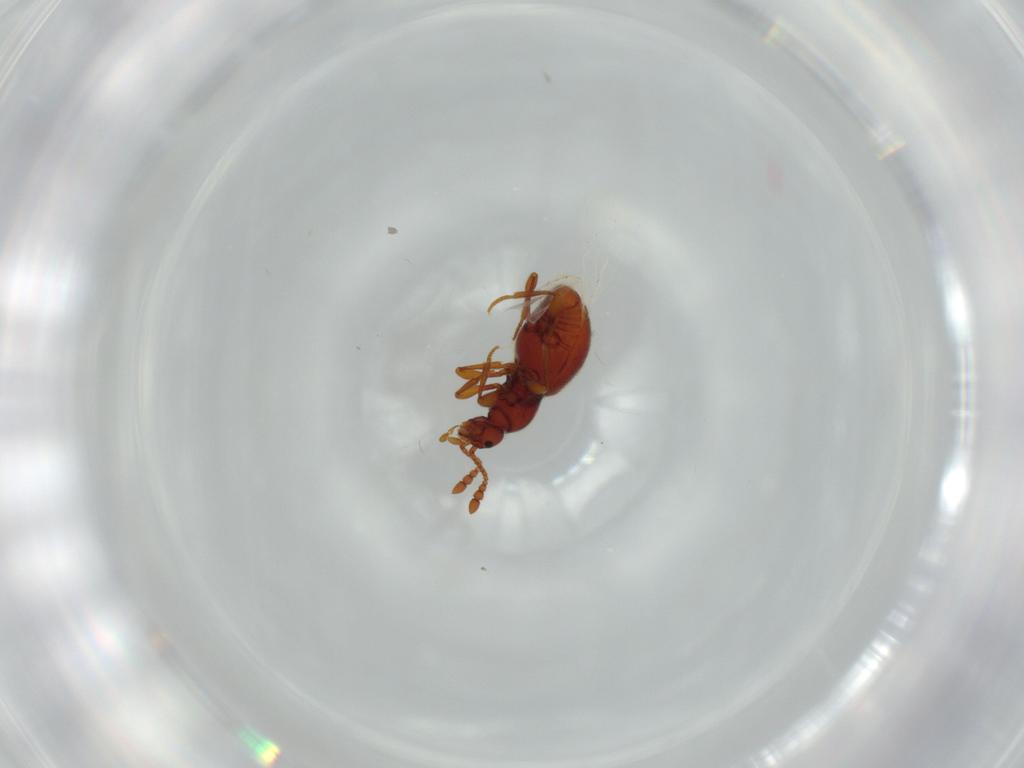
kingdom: Animalia
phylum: Arthropoda
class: Insecta
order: Coleoptera
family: Staphylinidae
